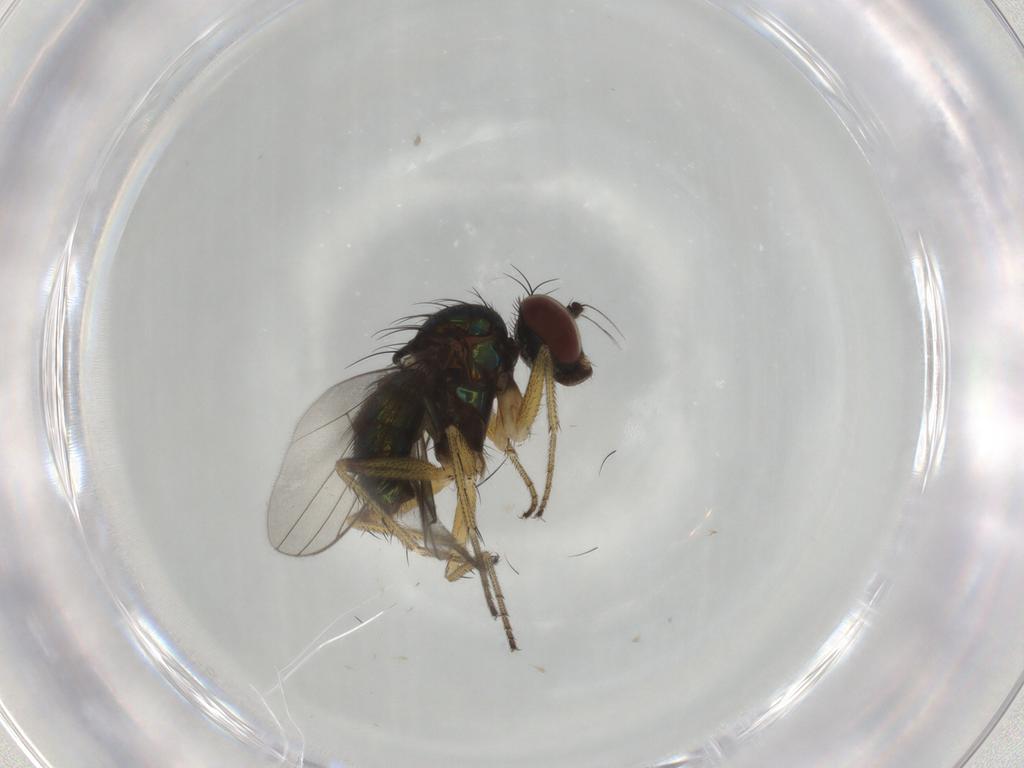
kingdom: Animalia
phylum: Arthropoda
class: Insecta
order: Diptera
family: Dolichopodidae
